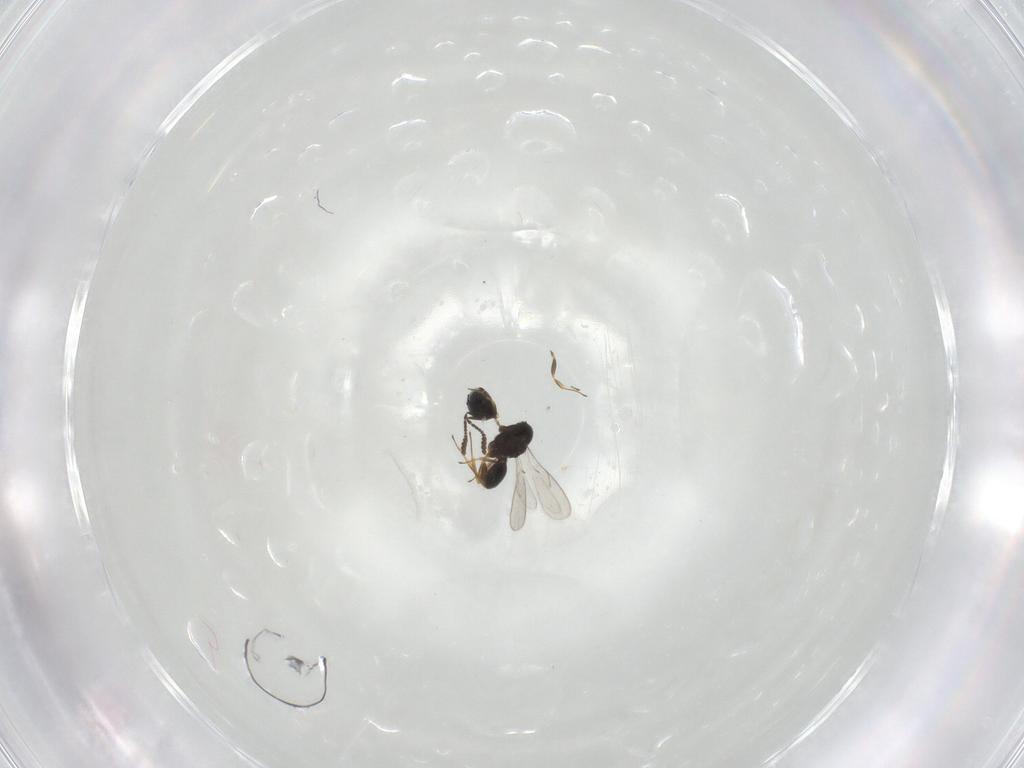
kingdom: Animalia
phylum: Arthropoda
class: Insecta
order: Hymenoptera
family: Scelionidae
